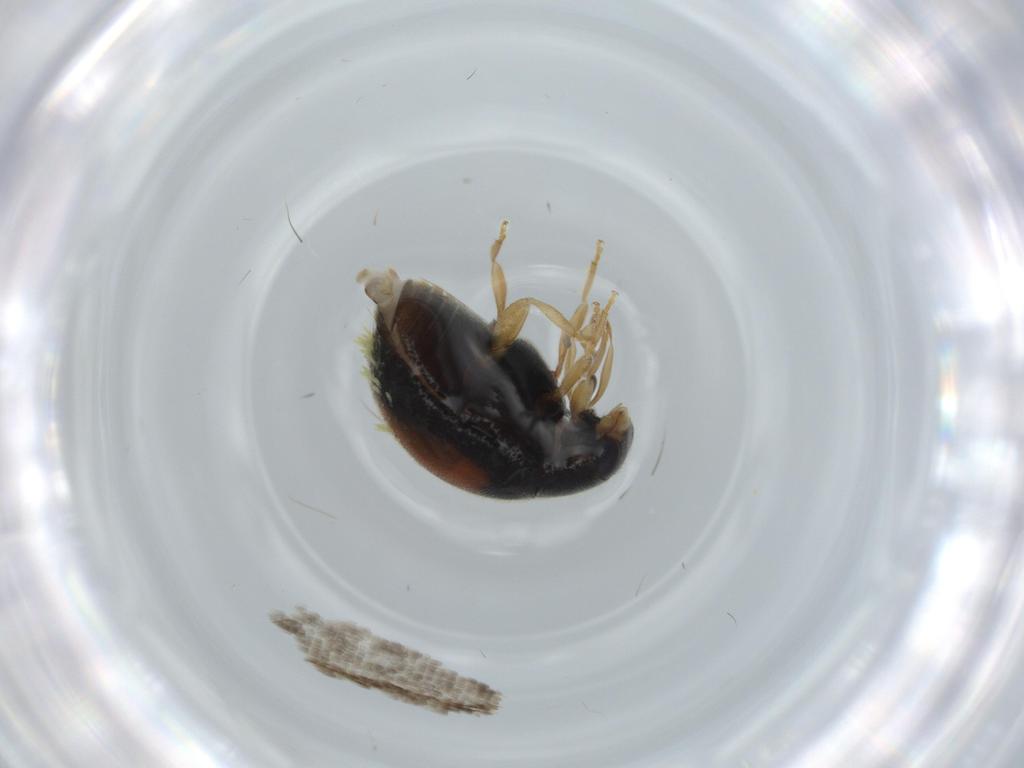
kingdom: Animalia
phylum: Arthropoda
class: Insecta
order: Coleoptera
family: Coccinellidae
